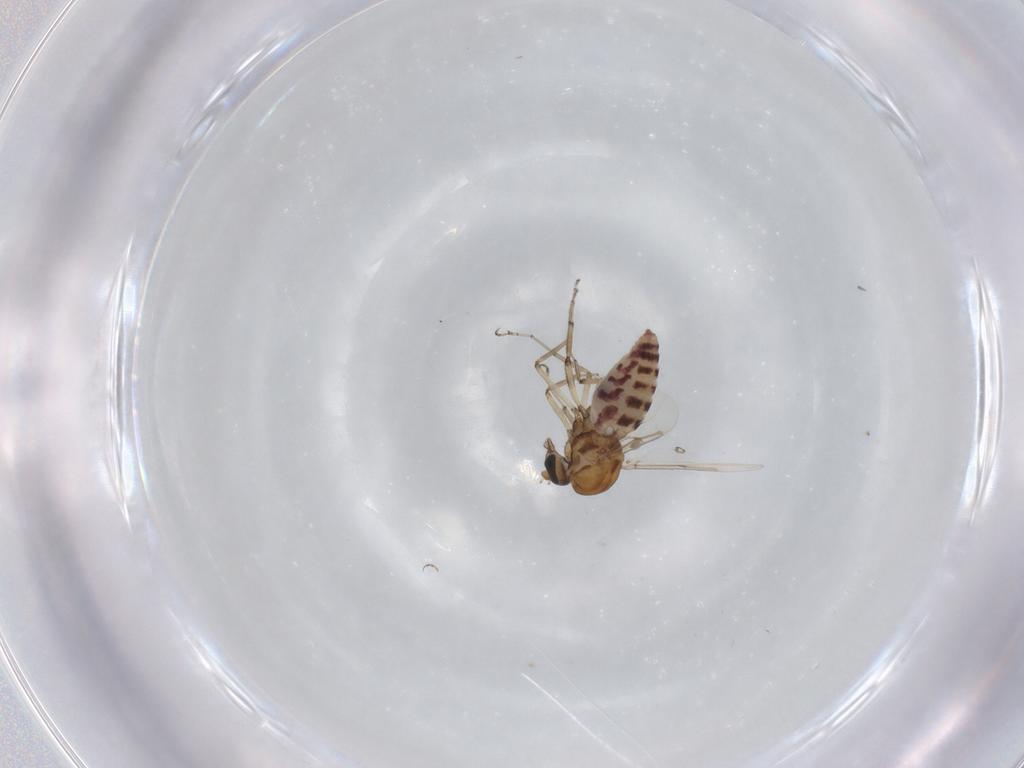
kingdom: Animalia
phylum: Arthropoda
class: Insecta
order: Diptera
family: Ceratopogonidae
